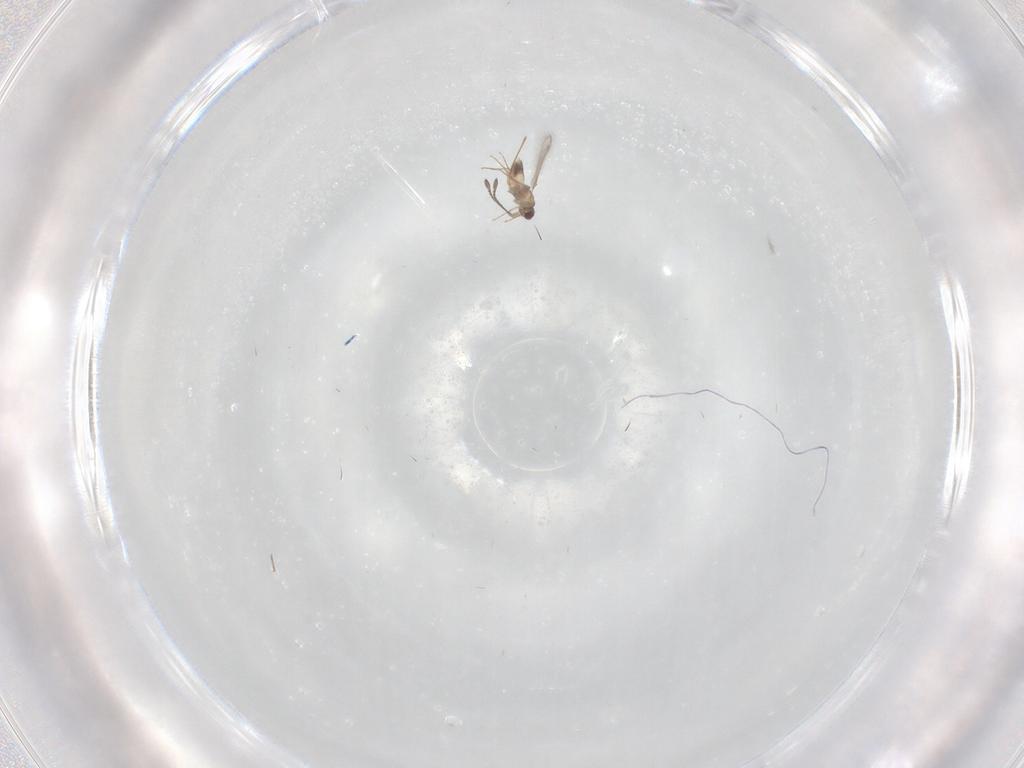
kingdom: Animalia
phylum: Arthropoda
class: Insecta
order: Hymenoptera
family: Mymaridae
